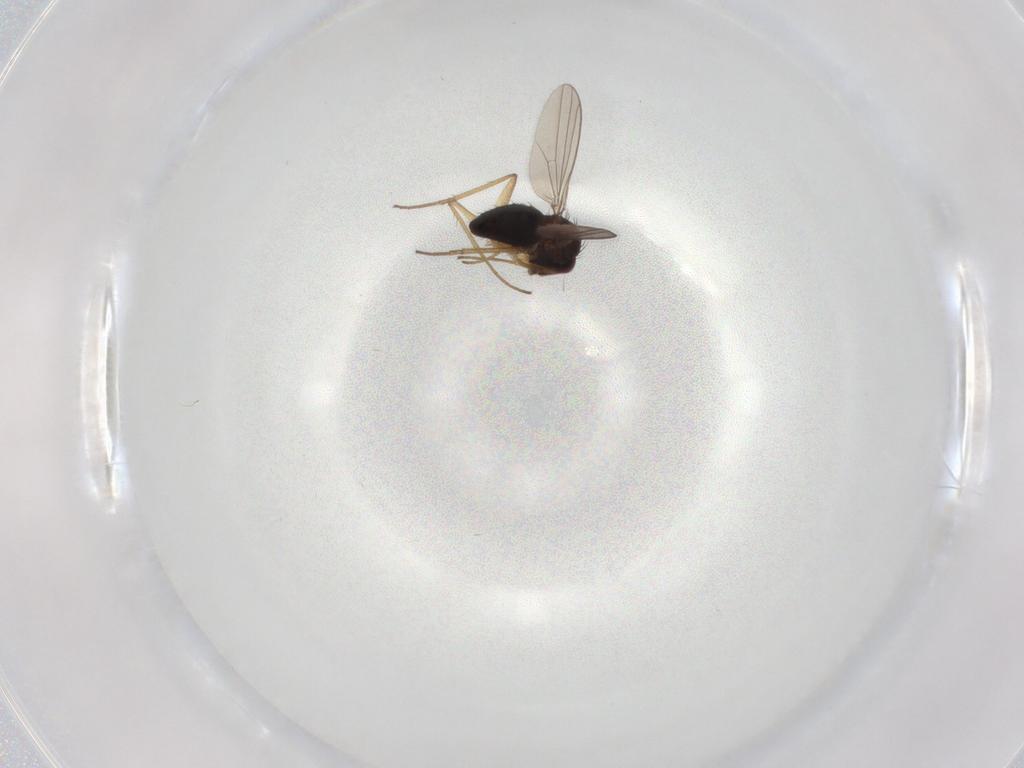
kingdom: Animalia
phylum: Arthropoda
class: Insecta
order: Diptera
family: Dolichopodidae
